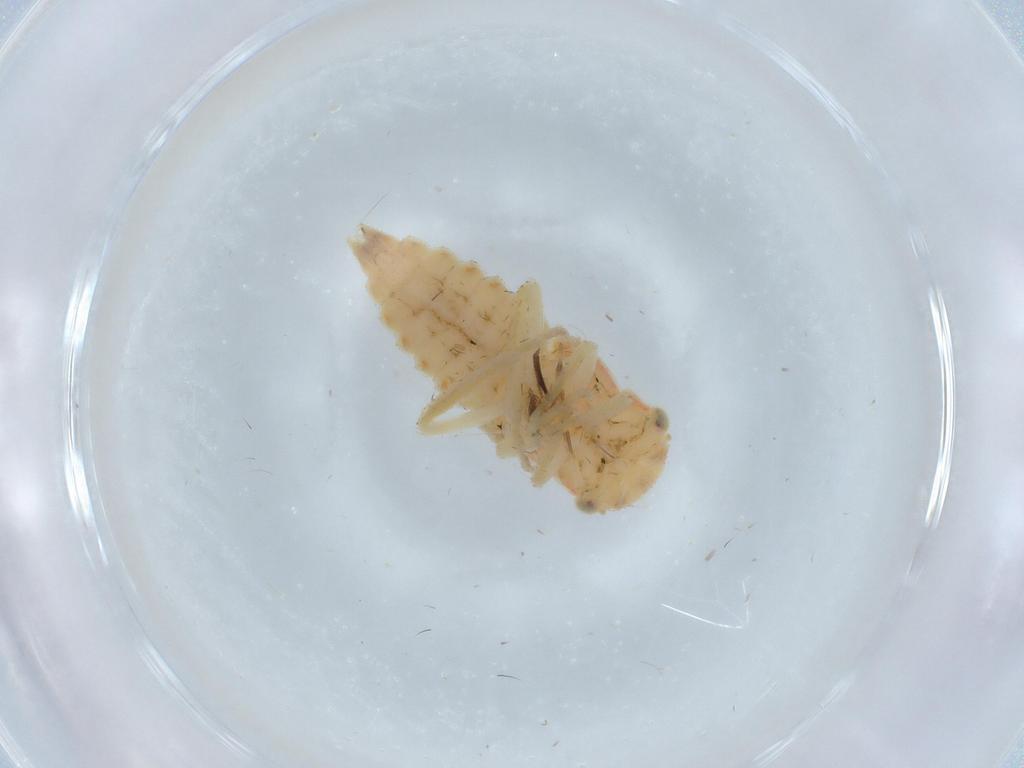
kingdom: Animalia
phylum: Arthropoda
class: Insecta
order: Hemiptera
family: Cicadellidae
